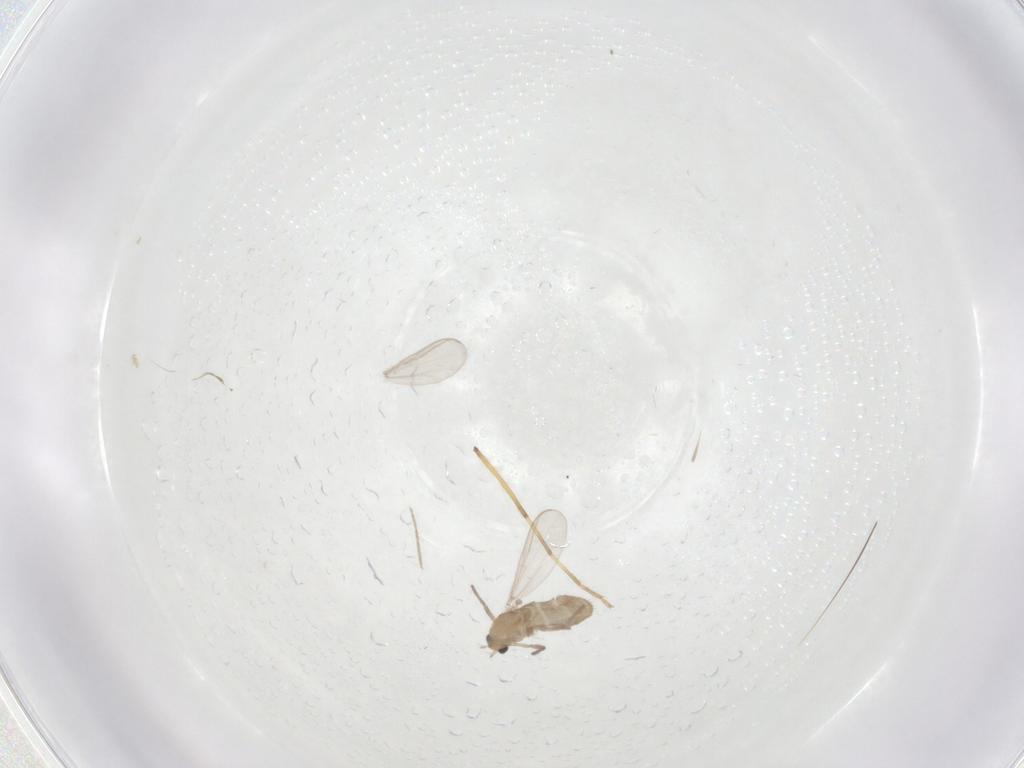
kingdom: Animalia
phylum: Arthropoda
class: Insecta
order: Diptera
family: Chironomidae
